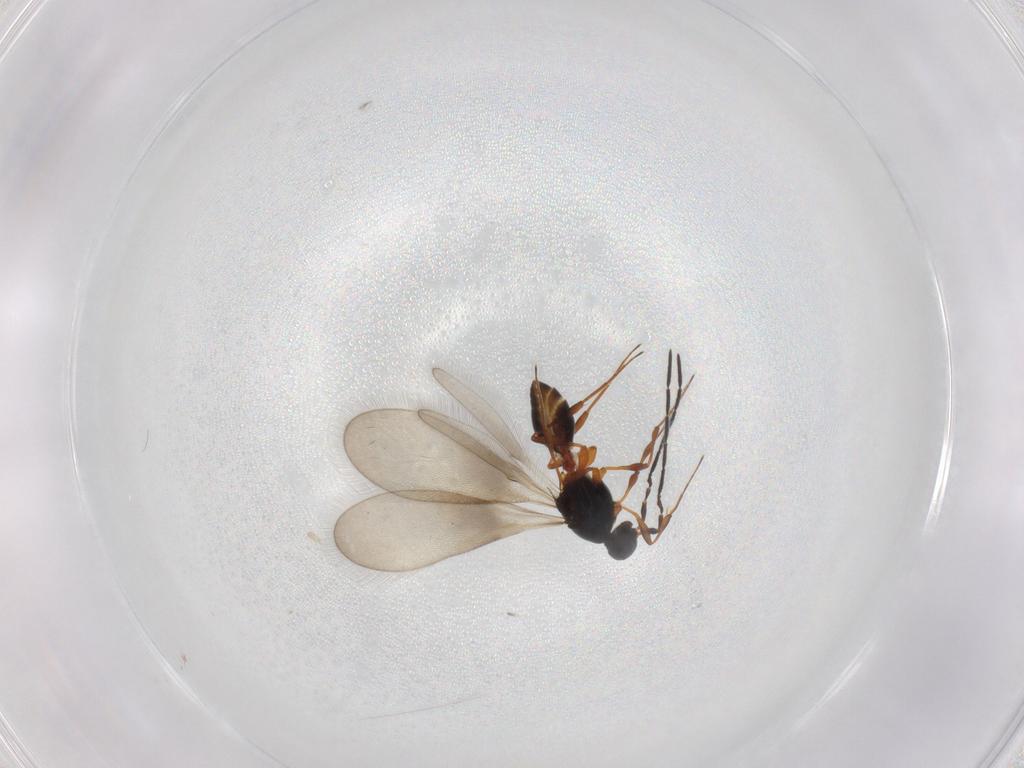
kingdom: Animalia
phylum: Arthropoda
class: Insecta
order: Hymenoptera
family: Platygastridae
